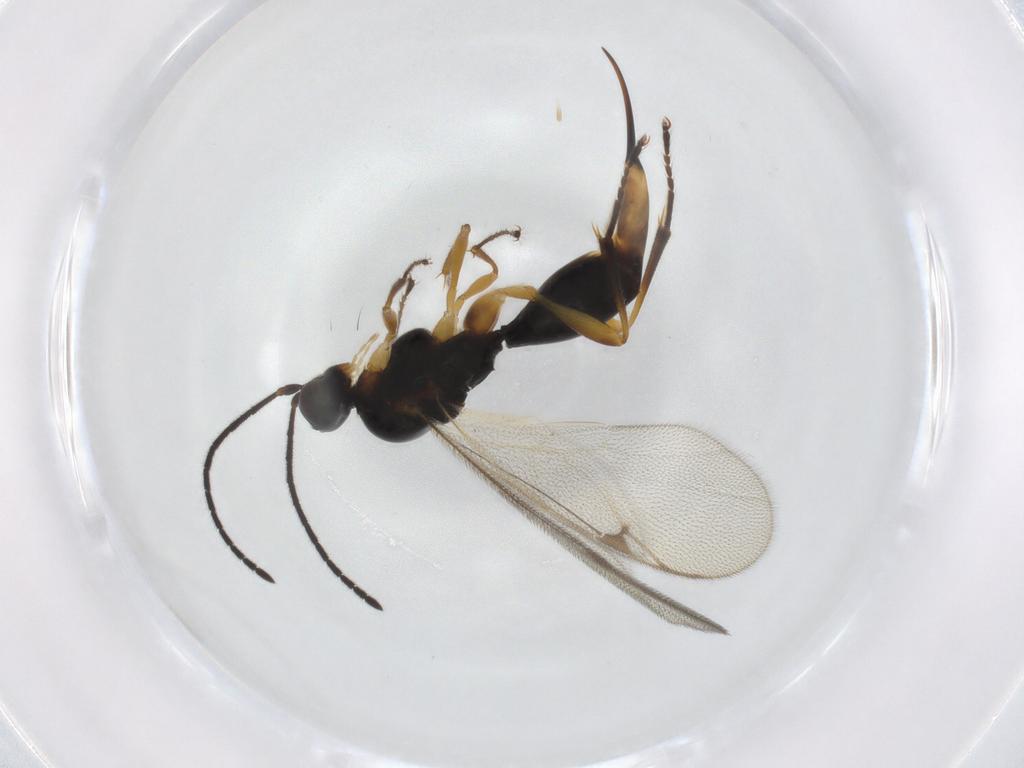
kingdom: Animalia
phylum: Arthropoda
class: Insecta
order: Hymenoptera
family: Proctotrupidae
